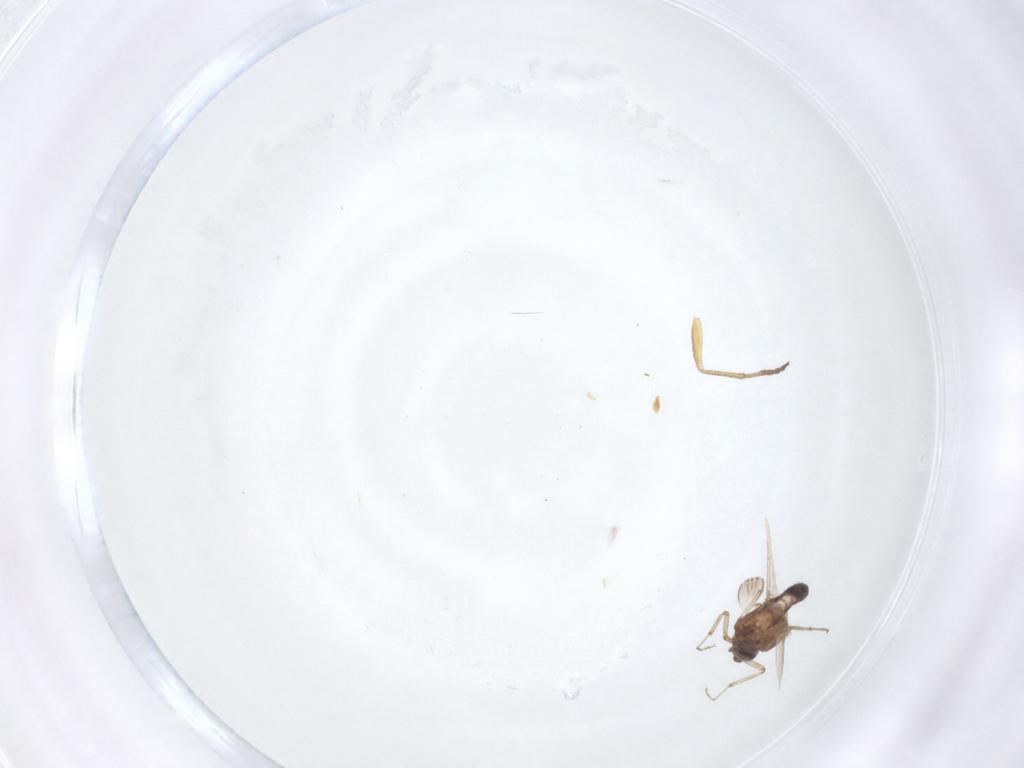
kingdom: Animalia
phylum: Arthropoda
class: Insecta
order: Diptera
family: Ceratopogonidae
